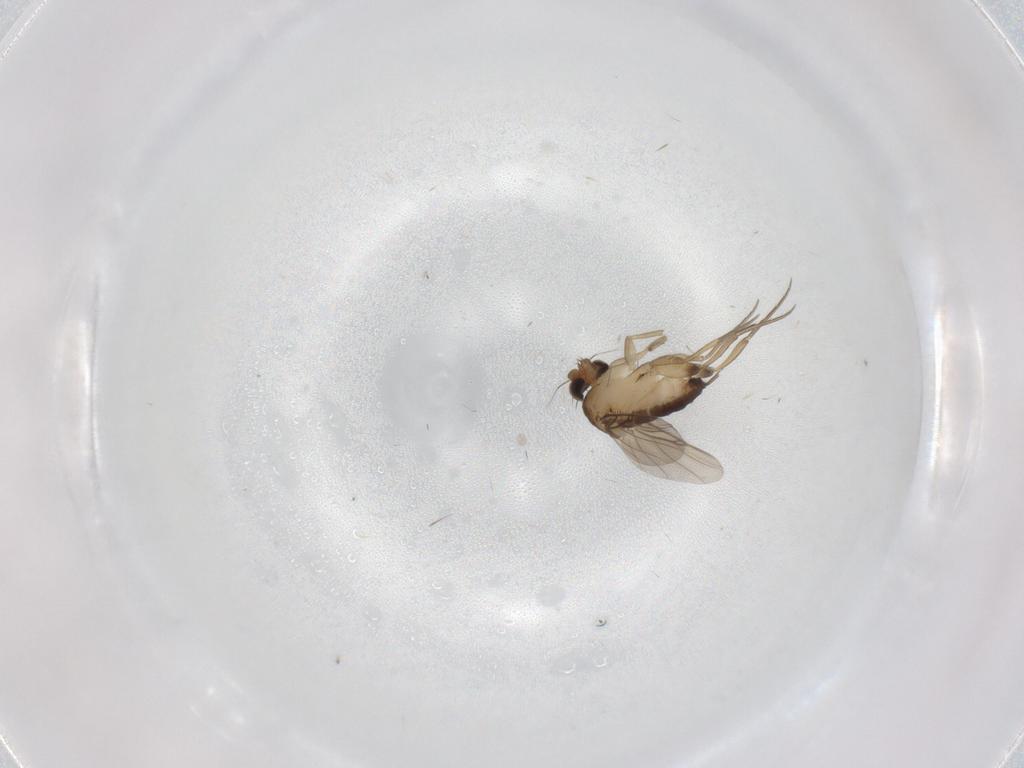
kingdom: Animalia
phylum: Arthropoda
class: Insecta
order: Diptera
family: Phoridae
